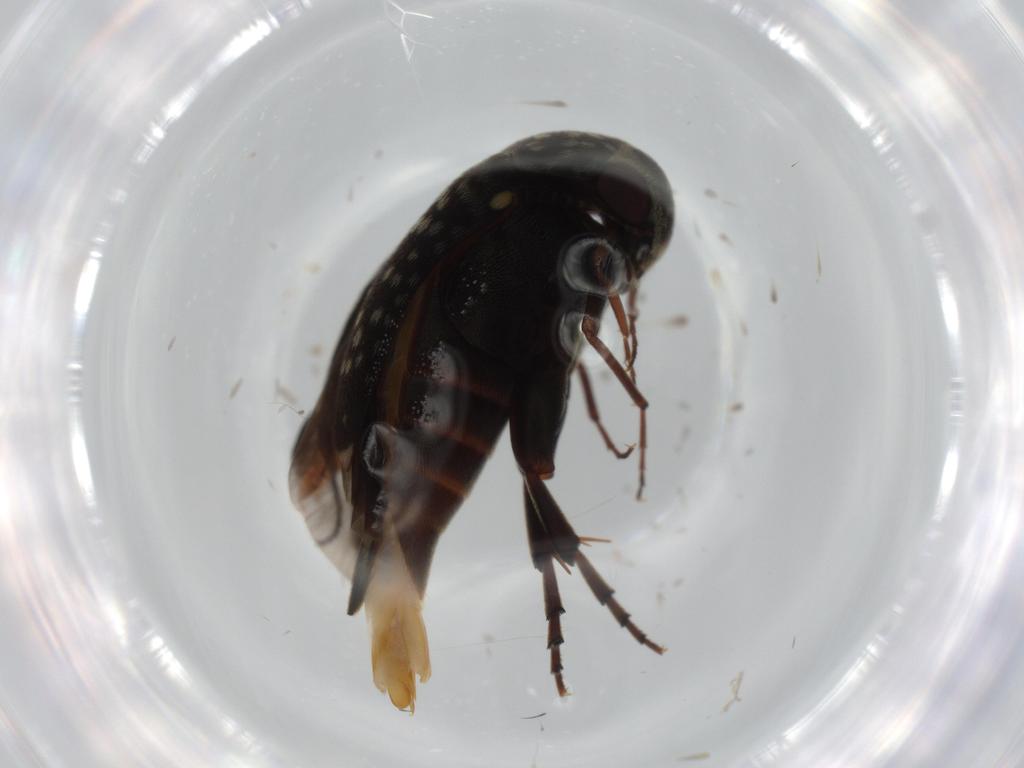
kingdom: Animalia
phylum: Arthropoda
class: Insecta
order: Coleoptera
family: Mordellidae
